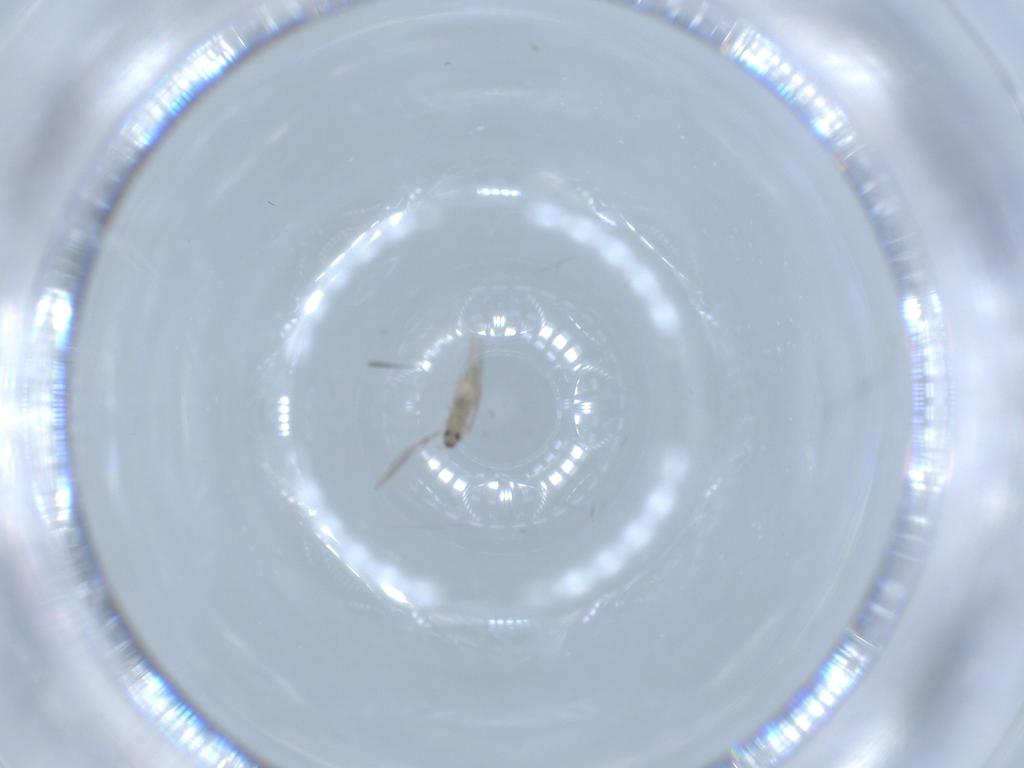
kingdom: Animalia
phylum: Arthropoda
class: Insecta
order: Diptera
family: Cecidomyiidae
